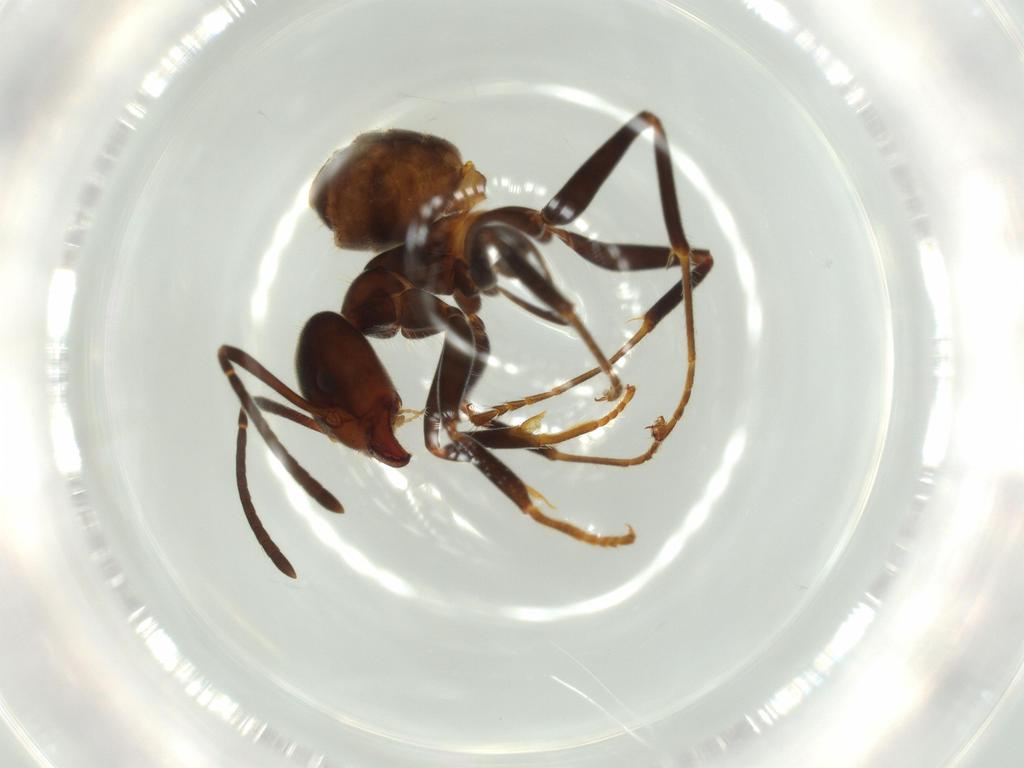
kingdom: Animalia
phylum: Arthropoda
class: Insecta
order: Hymenoptera
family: Formicidae
